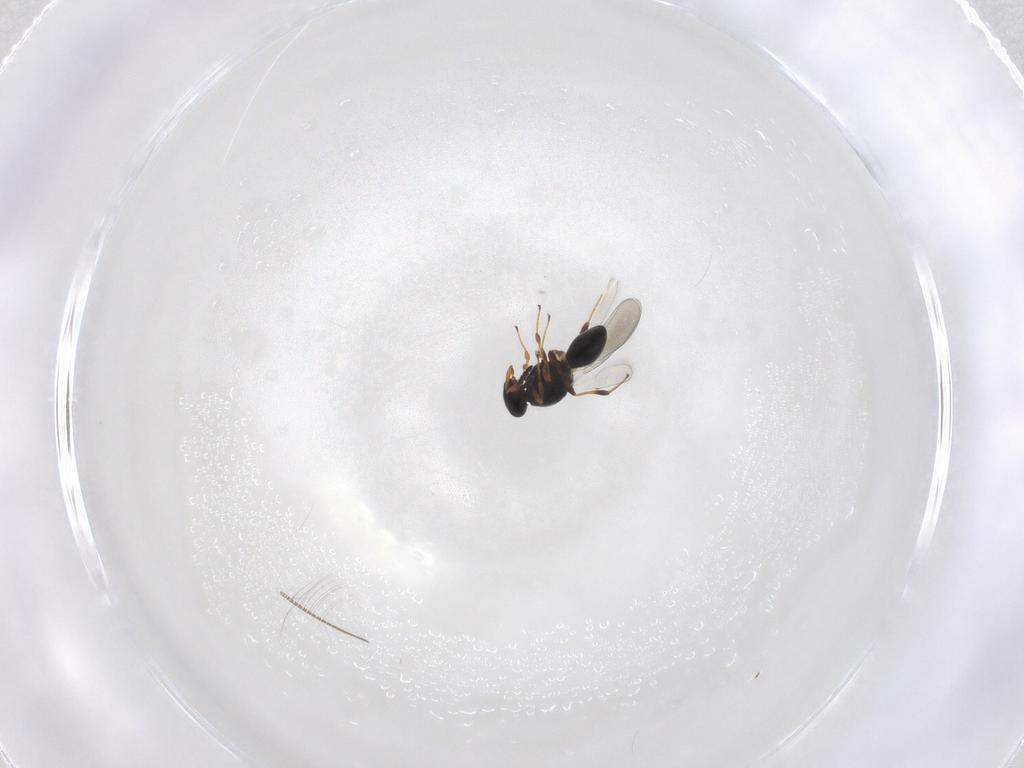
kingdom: Animalia
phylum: Arthropoda
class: Insecta
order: Hymenoptera
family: Platygastridae
